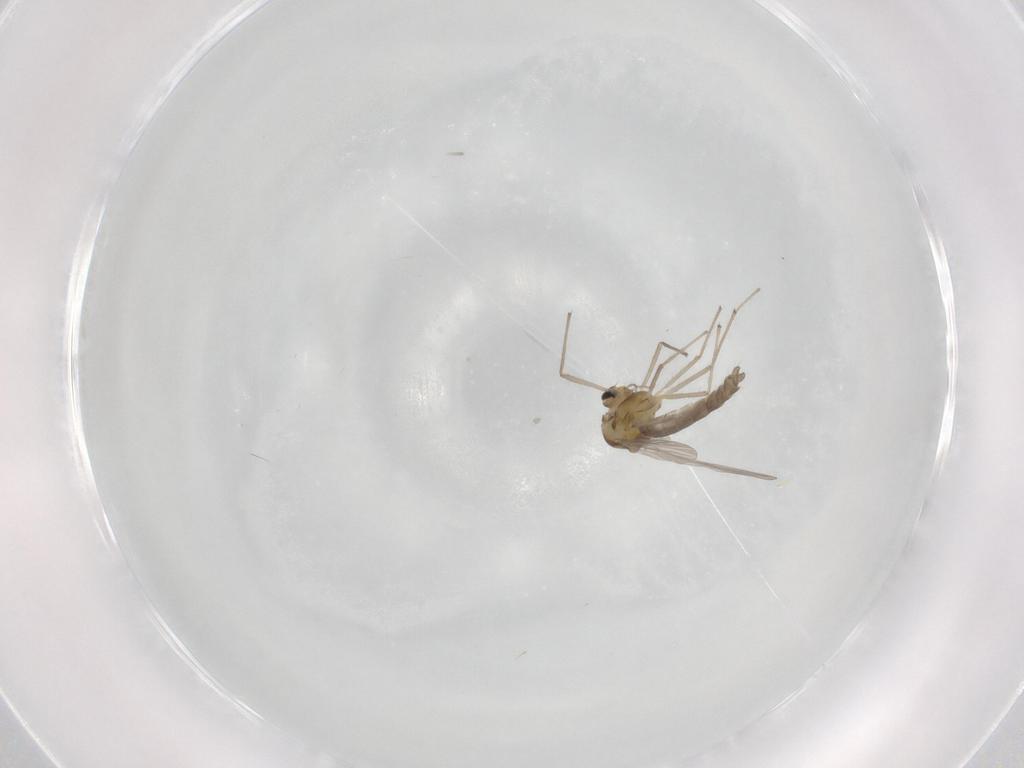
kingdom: Animalia
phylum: Arthropoda
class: Insecta
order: Diptera
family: Chironomidae
